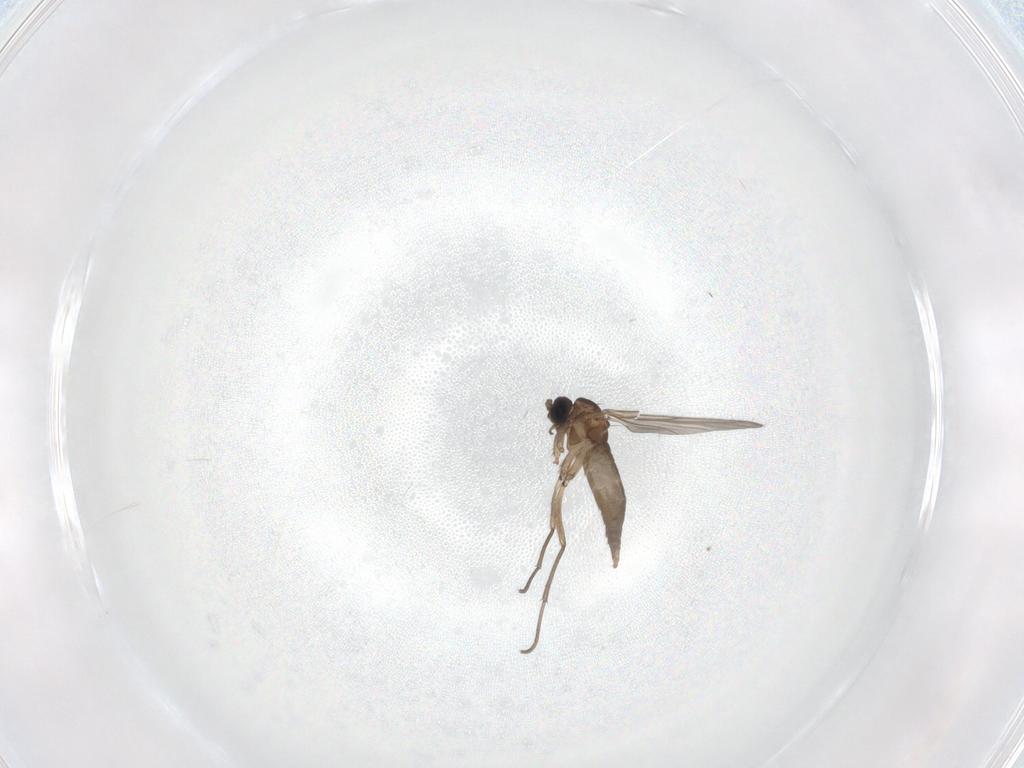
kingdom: Animalia
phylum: Arthropoda
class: Insecta
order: Diptera
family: Sciaridae
